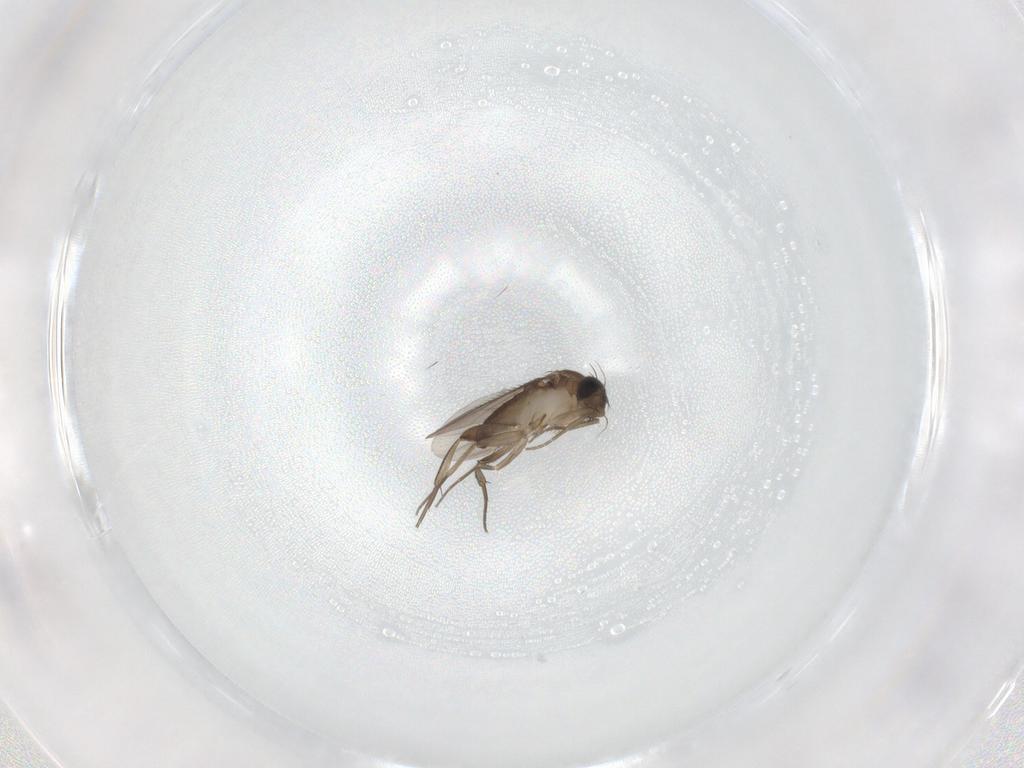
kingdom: Animalia
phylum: Arthropoda
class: Insecta
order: Diptera
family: Phoridae
